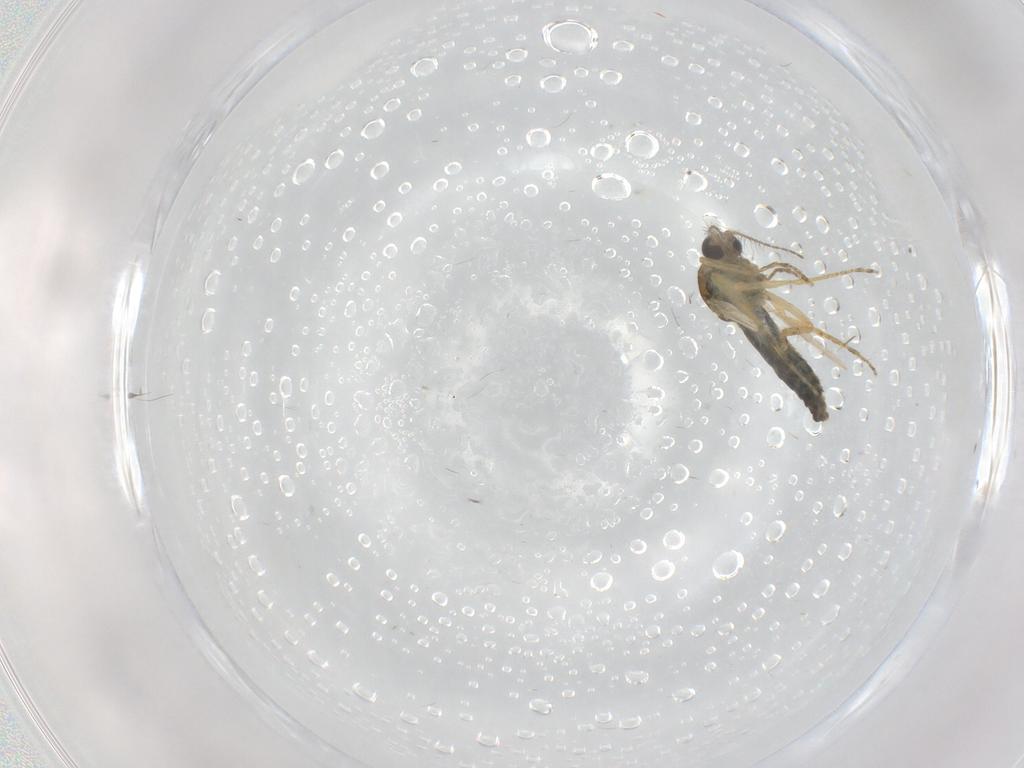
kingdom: Animalia
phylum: Arthropoda
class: Insecta
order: Diptera
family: Ceratopogonidae
